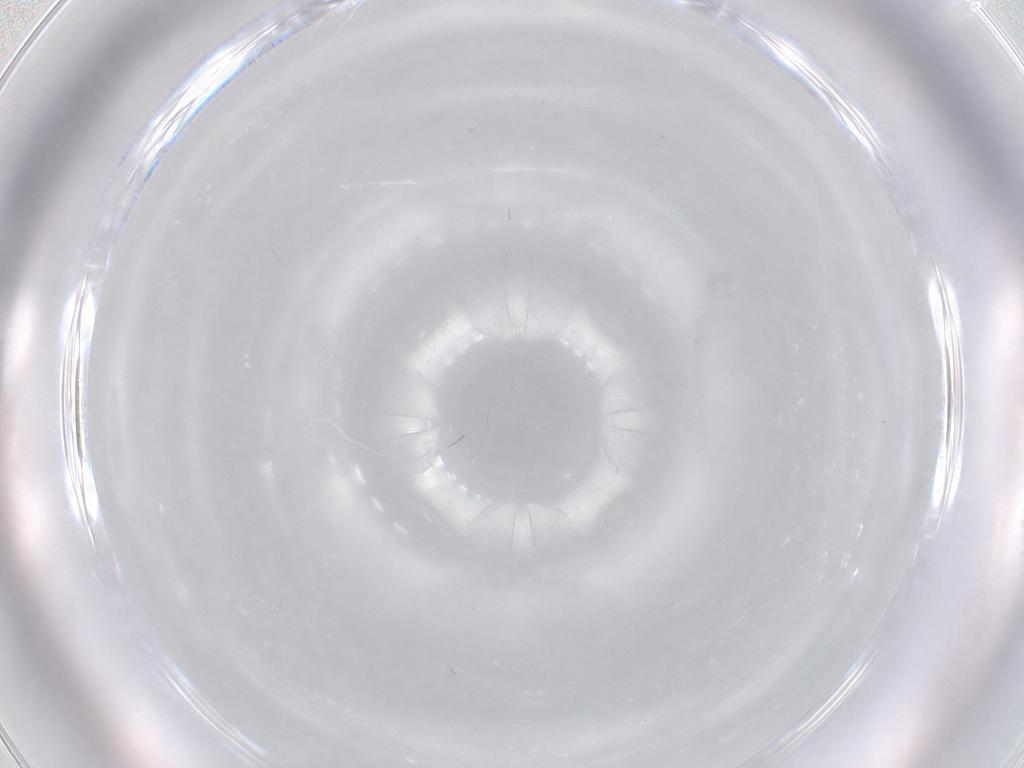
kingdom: Animalia
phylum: Arthropoda
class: Insecta
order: Diptera
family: Cecidomyiidae
